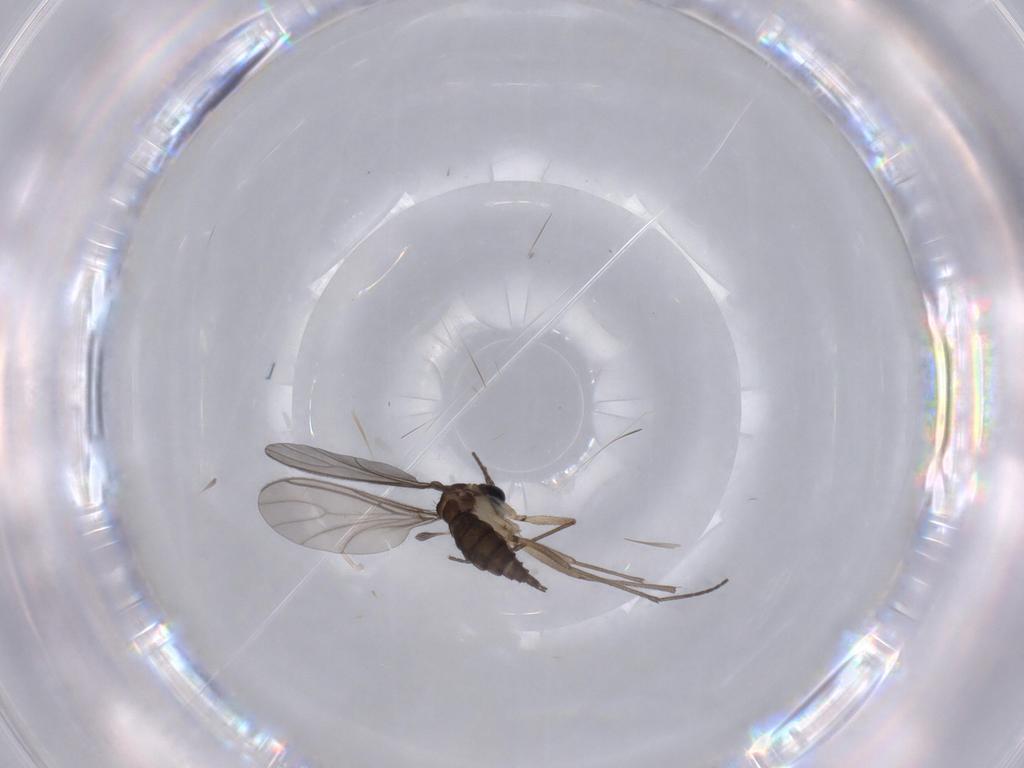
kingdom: Animalia
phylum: Arthropoda
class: Insecta
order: Diptera
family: Sciaridae
